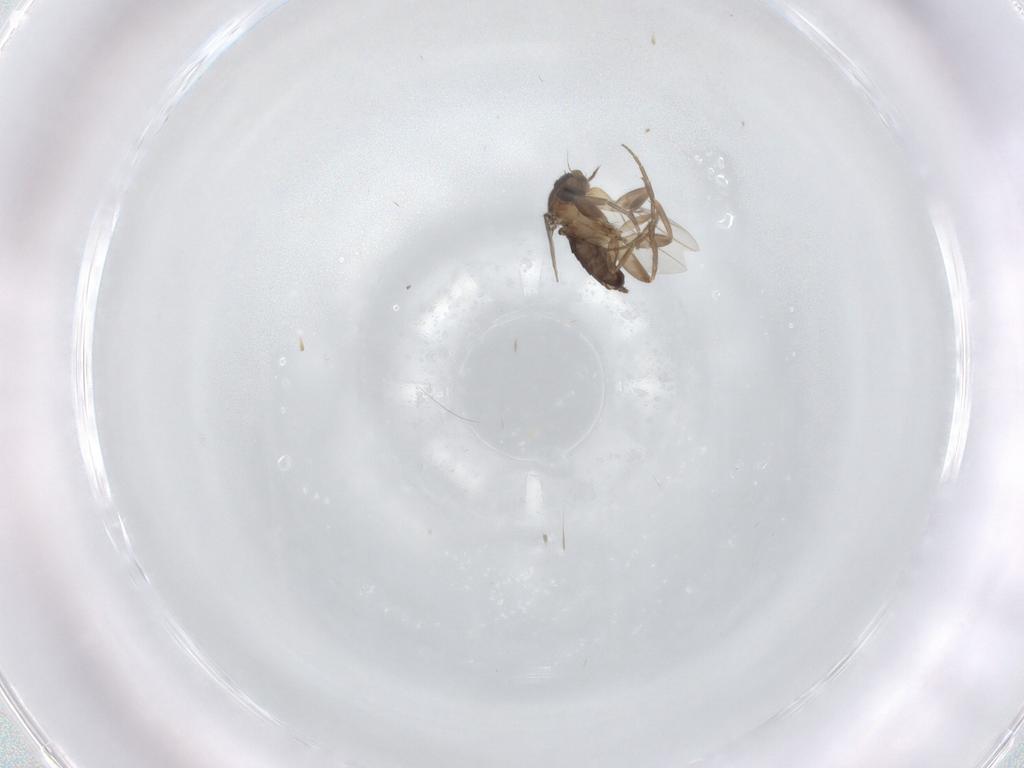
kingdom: Animalia
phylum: Arthropoda
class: Insecta
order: Diptera
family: Phoridae
